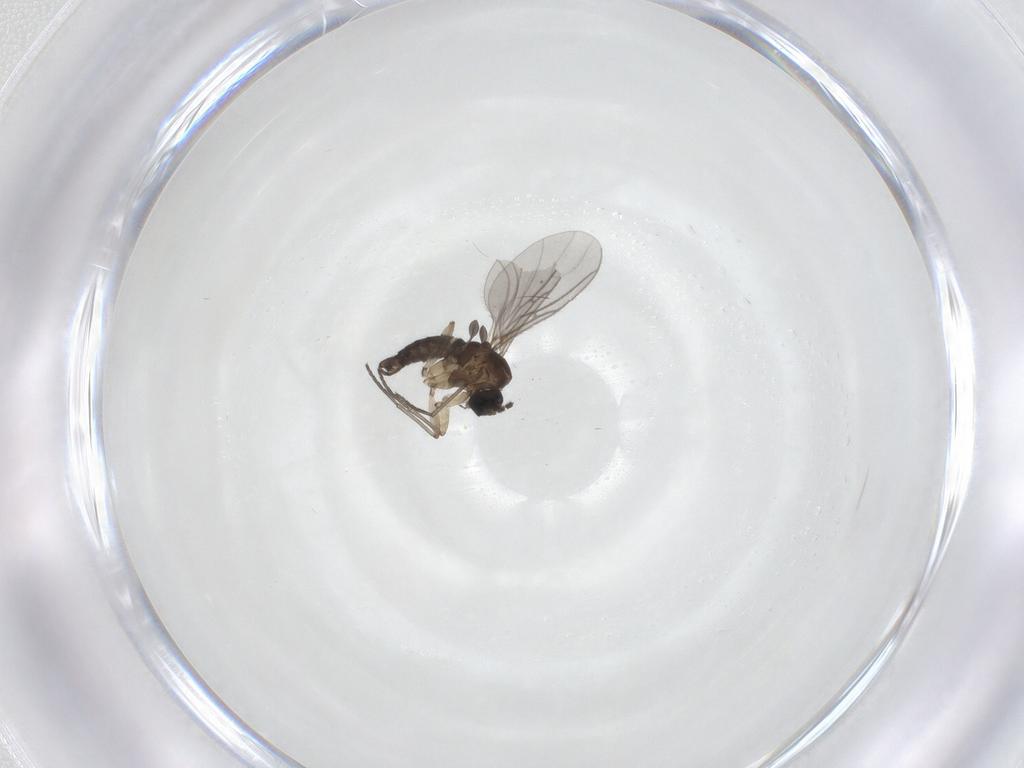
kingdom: Animalia
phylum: Arthropoda
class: Insecta
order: Diptera
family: Sciaridae
